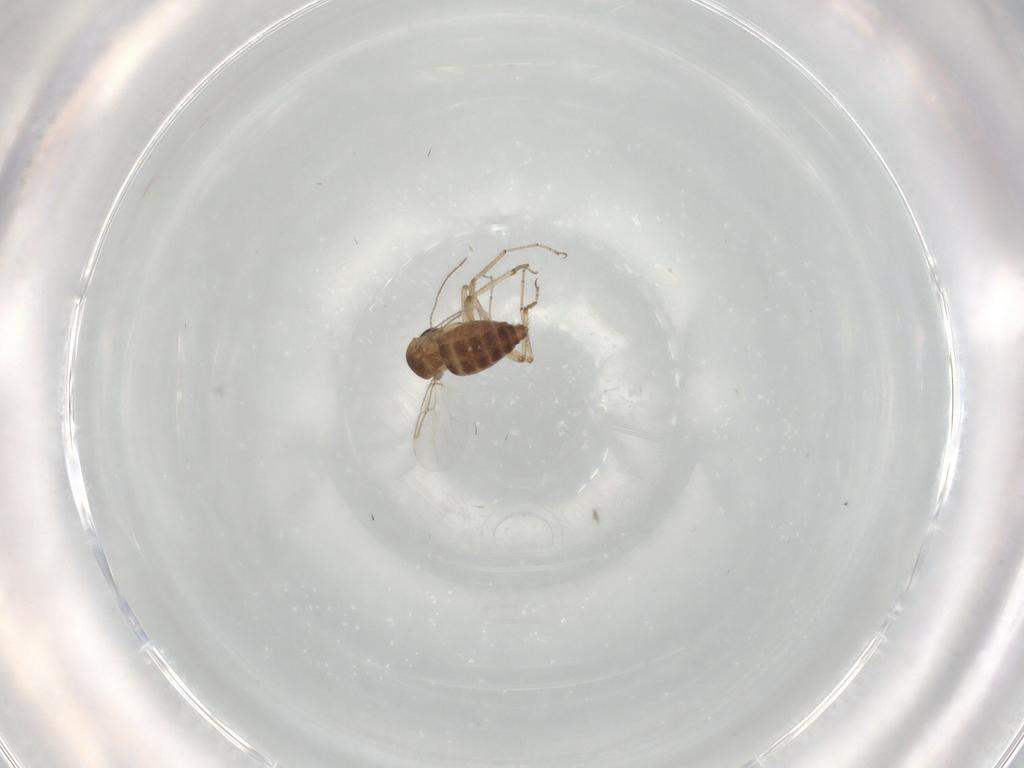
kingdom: Animalia
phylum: Arthropoda
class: Insecta
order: Diptera
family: Ceratopogonidae
